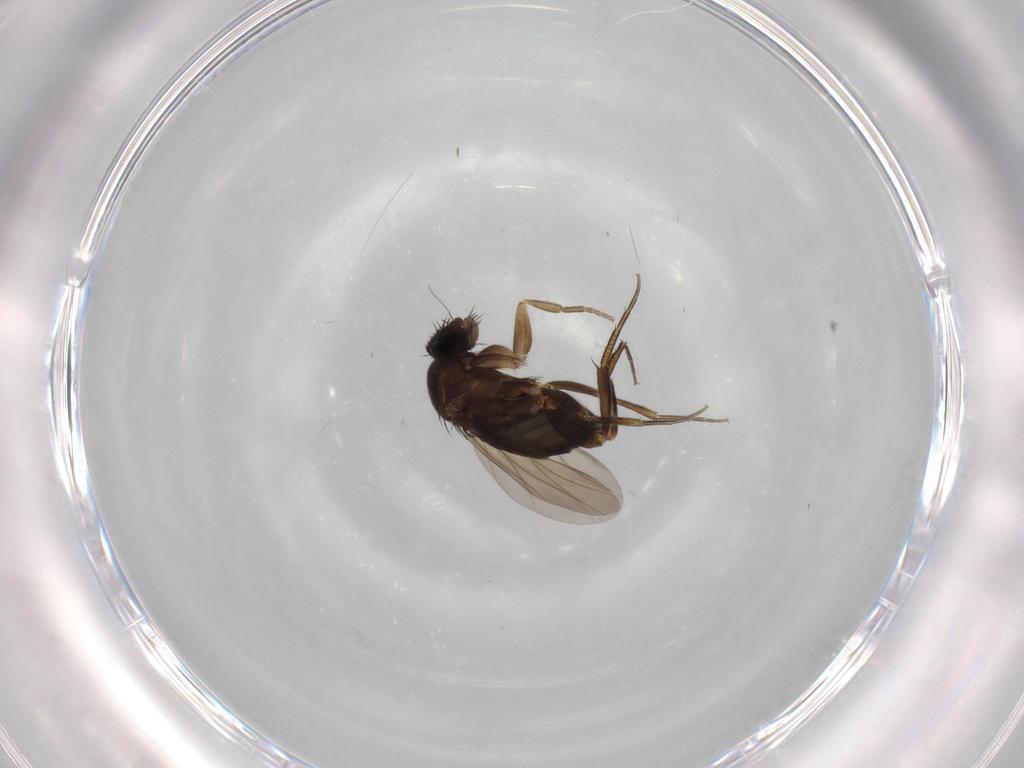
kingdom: Animalia
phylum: Arthropoda
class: Insecta
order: Diptera
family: Phoridae
